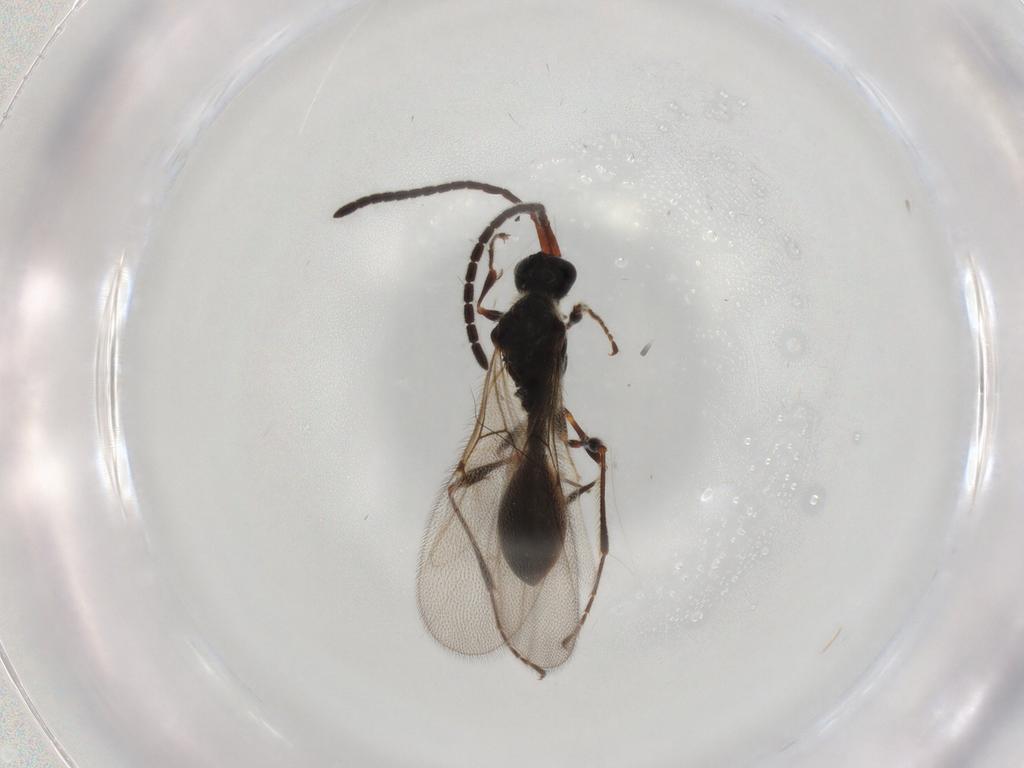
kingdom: Animalia
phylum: Arthropoda
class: Insecta
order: Hymenoptera
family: Diapriidae
